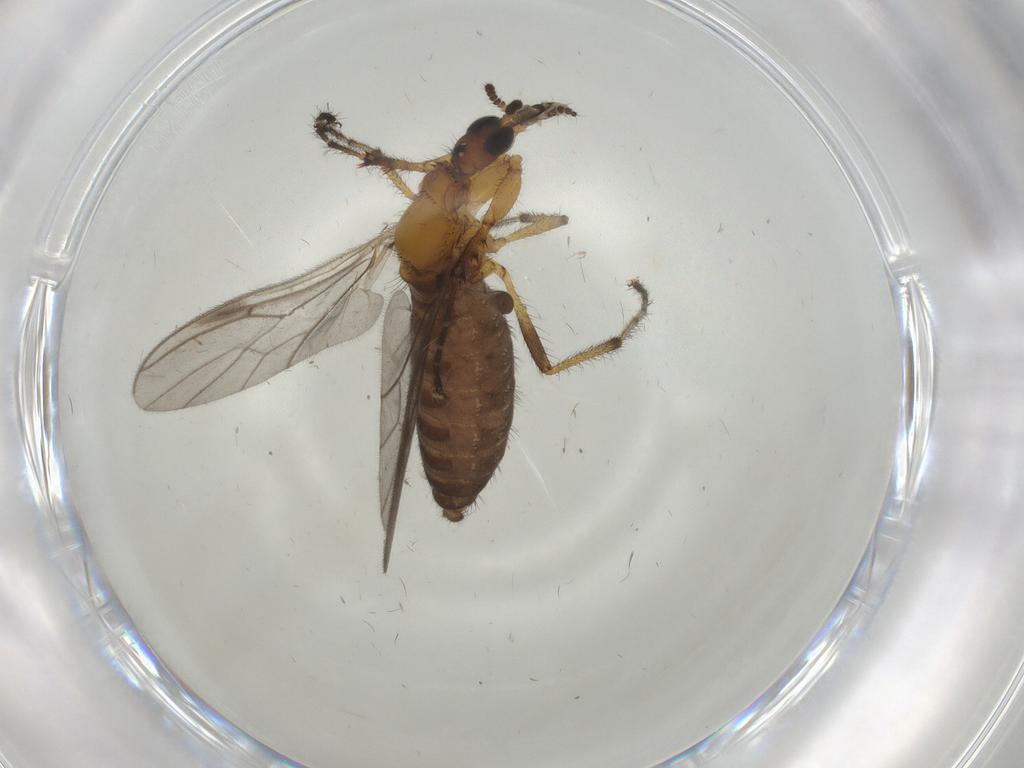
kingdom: Animalia
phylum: Arthropoda
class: Insecta
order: Diptera
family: Bibionidae
